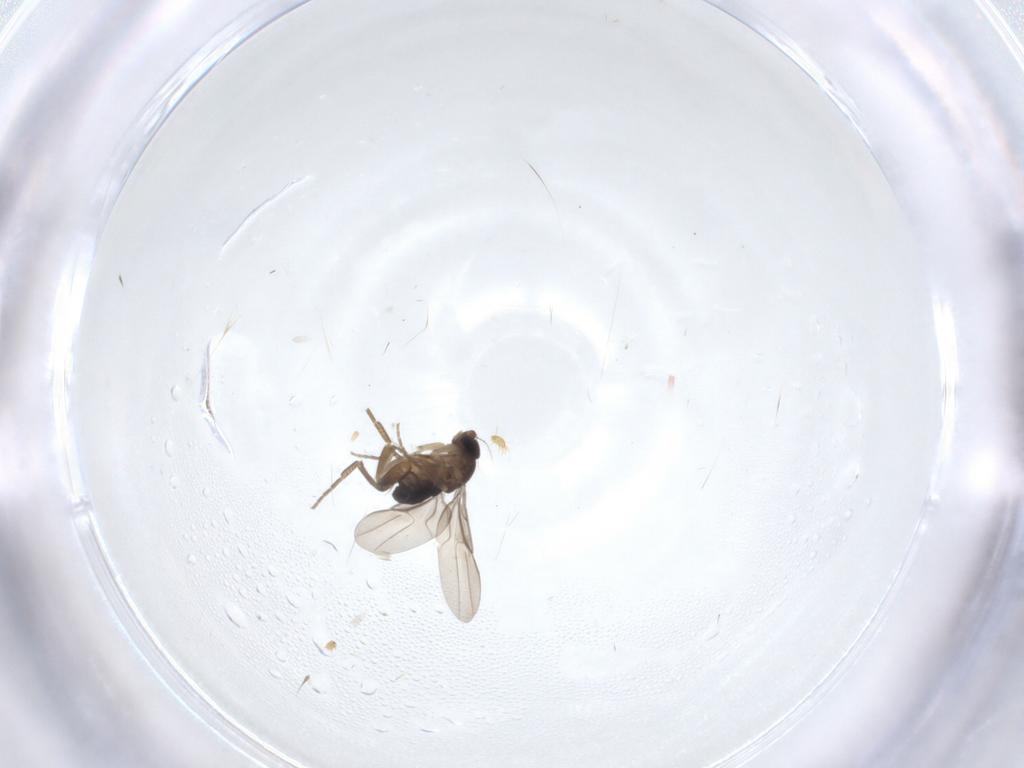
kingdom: Animalia
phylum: Arthropoda
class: Insecta
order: Diptera
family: Phoridae
